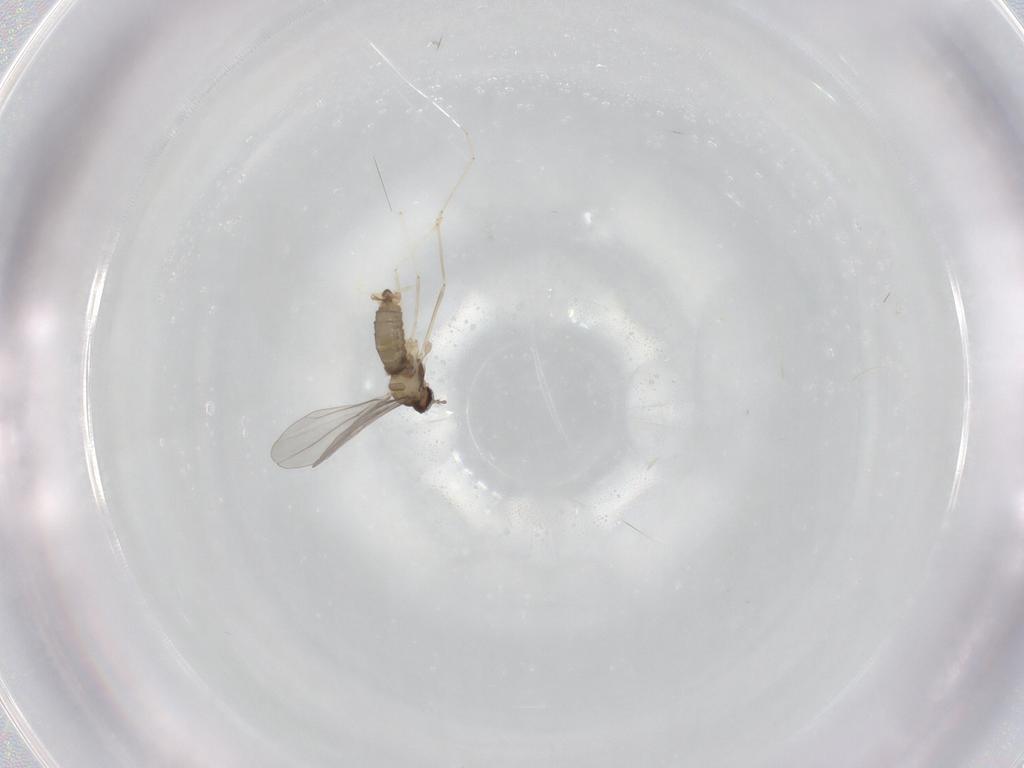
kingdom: Animalia
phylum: Arthropoda
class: Insecta
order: Diptera
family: Cecidomyiidae
